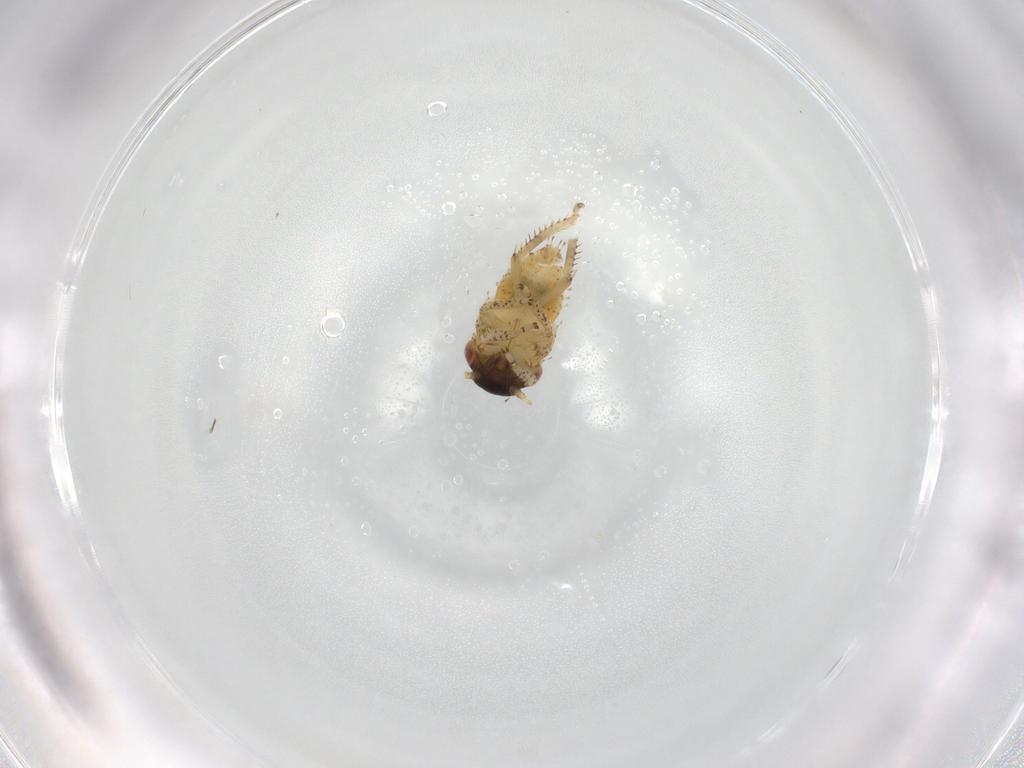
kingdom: Animalia
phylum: Arthropoda
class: Insecta
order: Hemiptera
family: Cicadellidae
